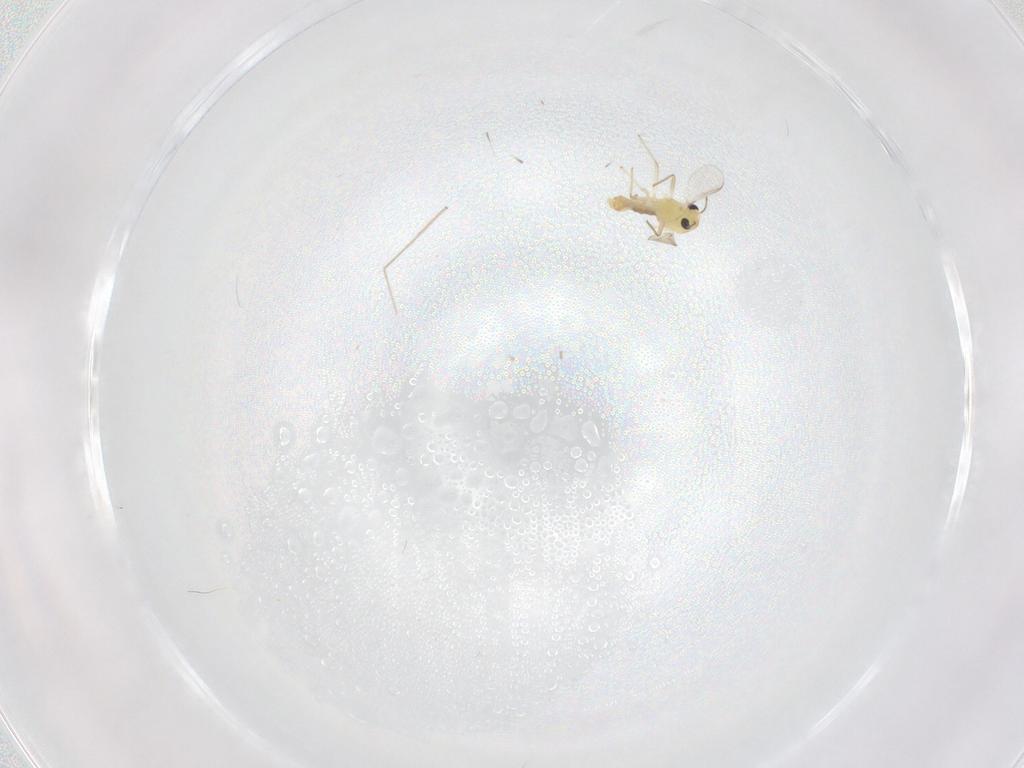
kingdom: Animalia
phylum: Arthropoda
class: Insecta
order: Diptera
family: Chironomidae
